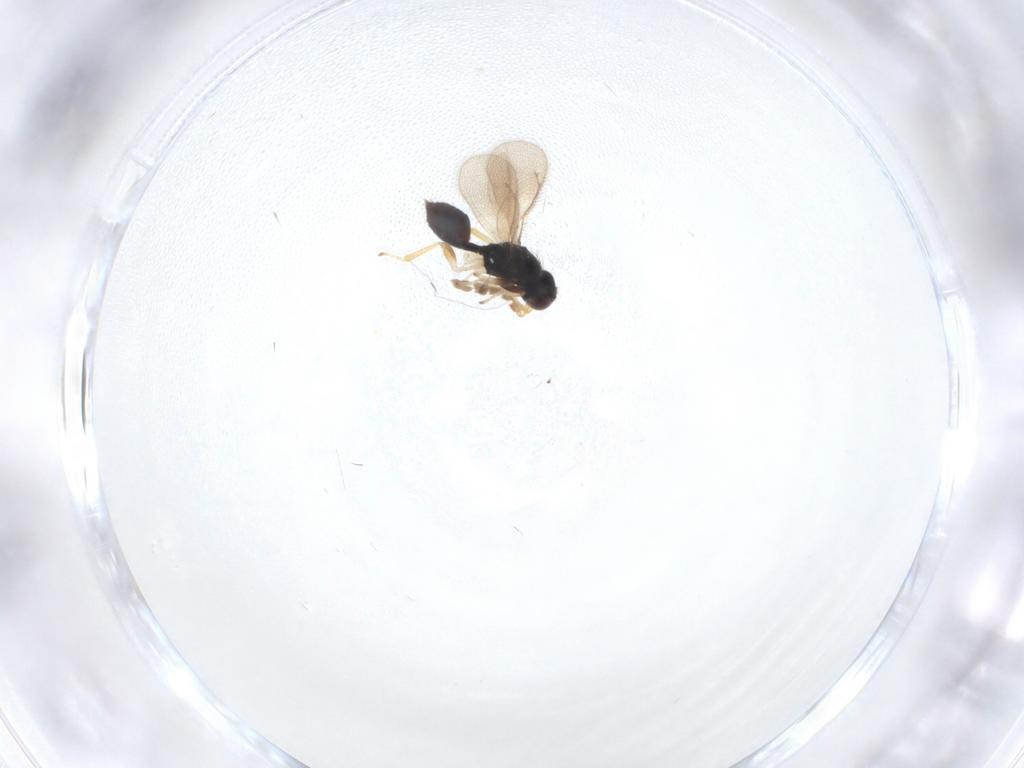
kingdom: Animalia
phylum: Arthropoda
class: Insecta
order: Hymenoptera
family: Eulophidae
